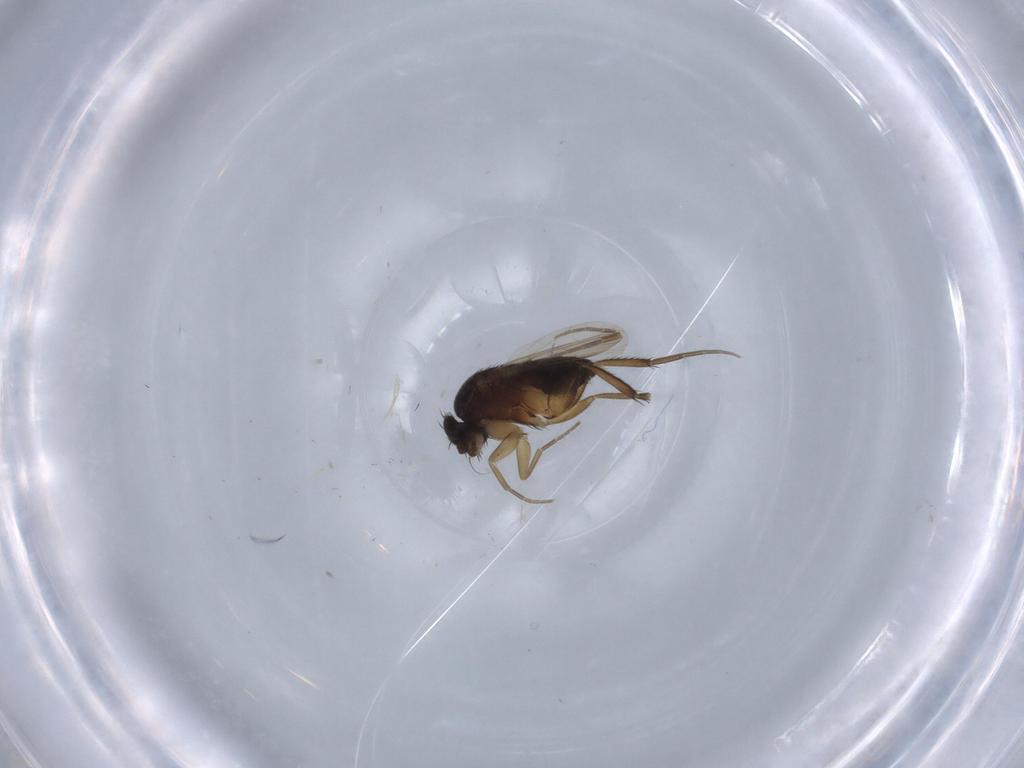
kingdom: Animalia
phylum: Arthropoda
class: Insecta
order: Diptera
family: Phoridae
